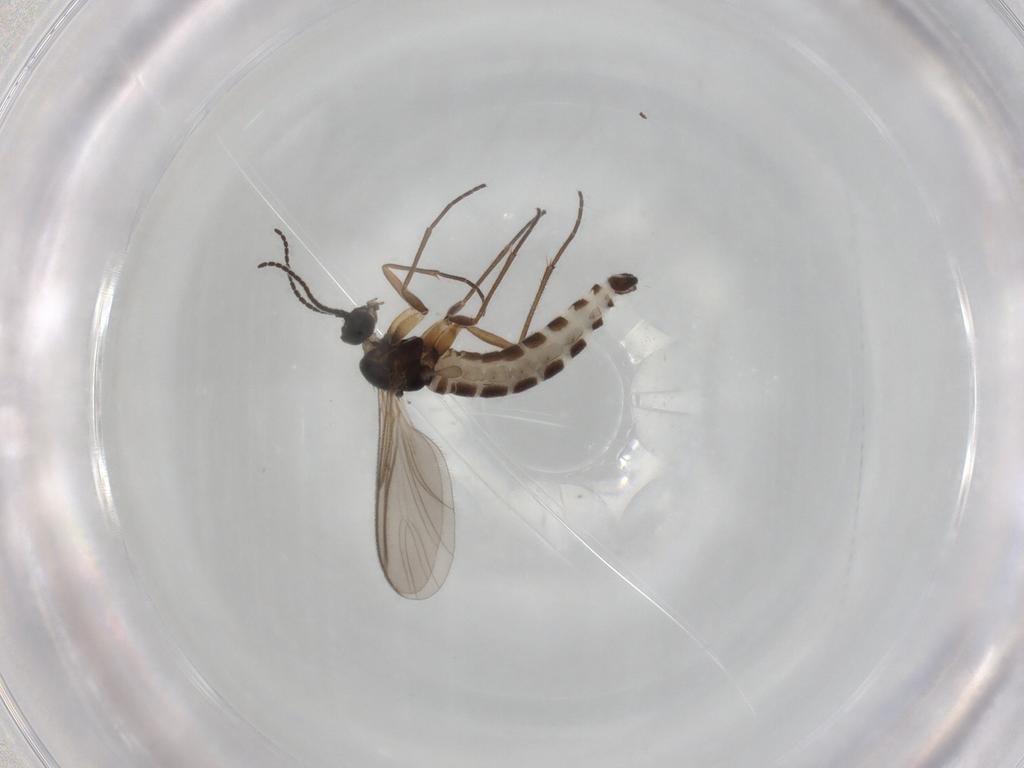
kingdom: Animalia
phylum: Arthropoda
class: Insecta
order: Diptera
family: Sciaridae
